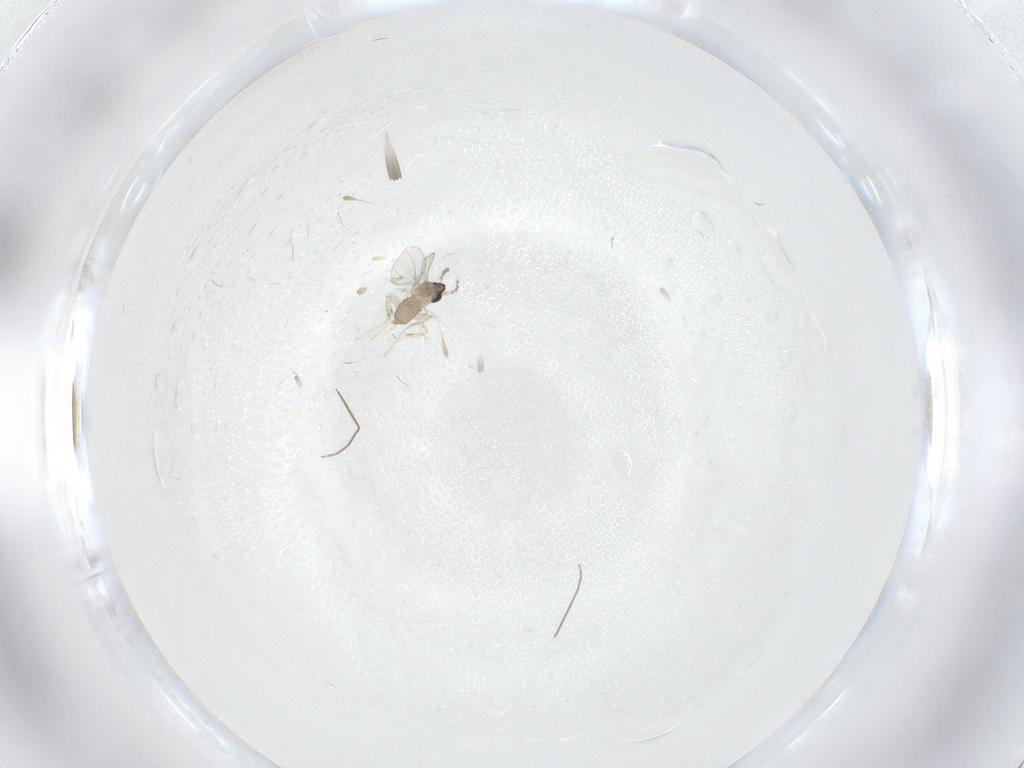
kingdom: Animalia
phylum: Arthropoda
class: Insecta
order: Diptera
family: Cecidomyiidae
